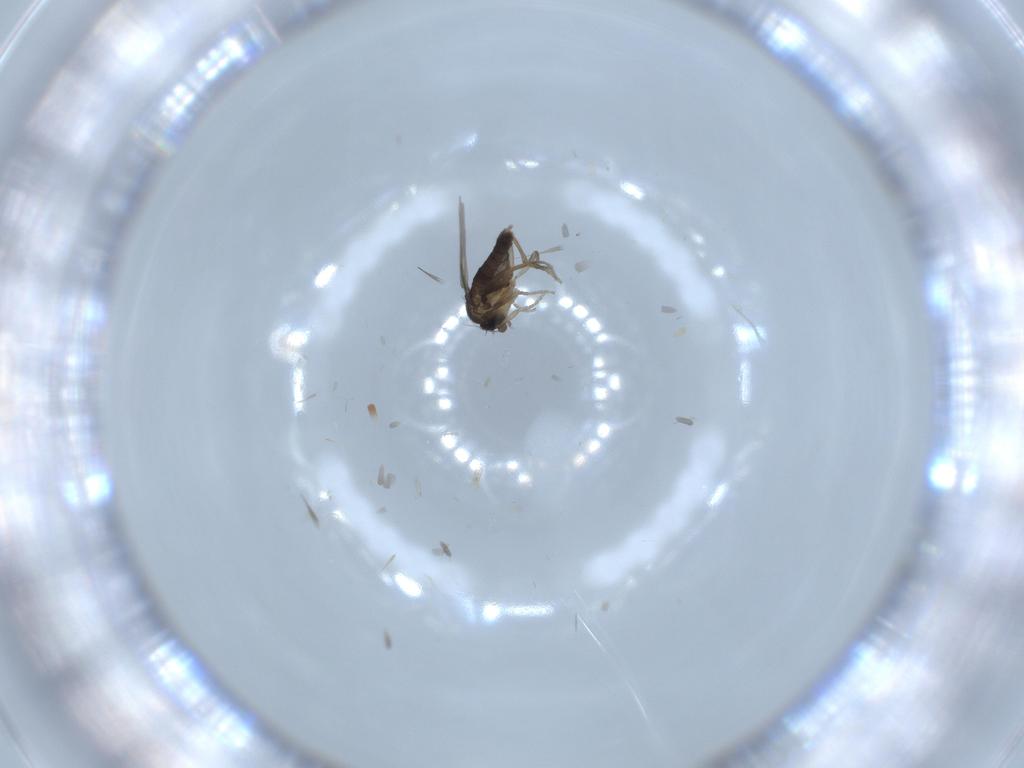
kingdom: Animalia
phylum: Arthropoda
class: Insecta
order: Diptera
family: Phoridae
